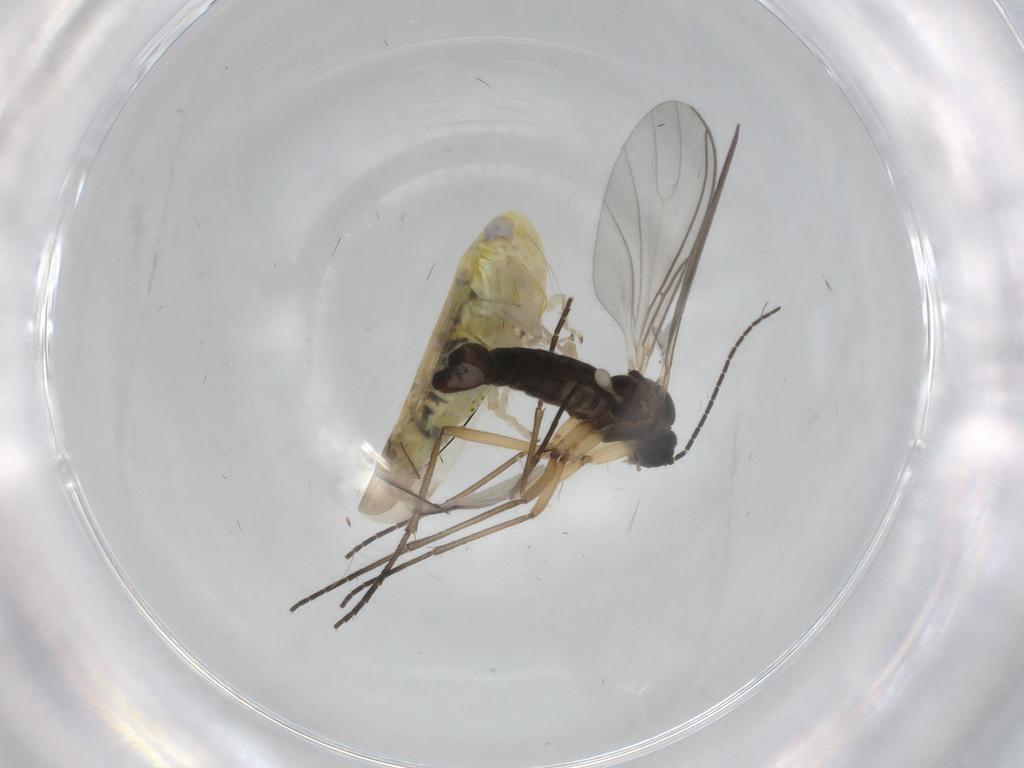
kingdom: Animalia
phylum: Arthropoda
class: Insecta
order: Hemiptera
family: Cicadellidae
